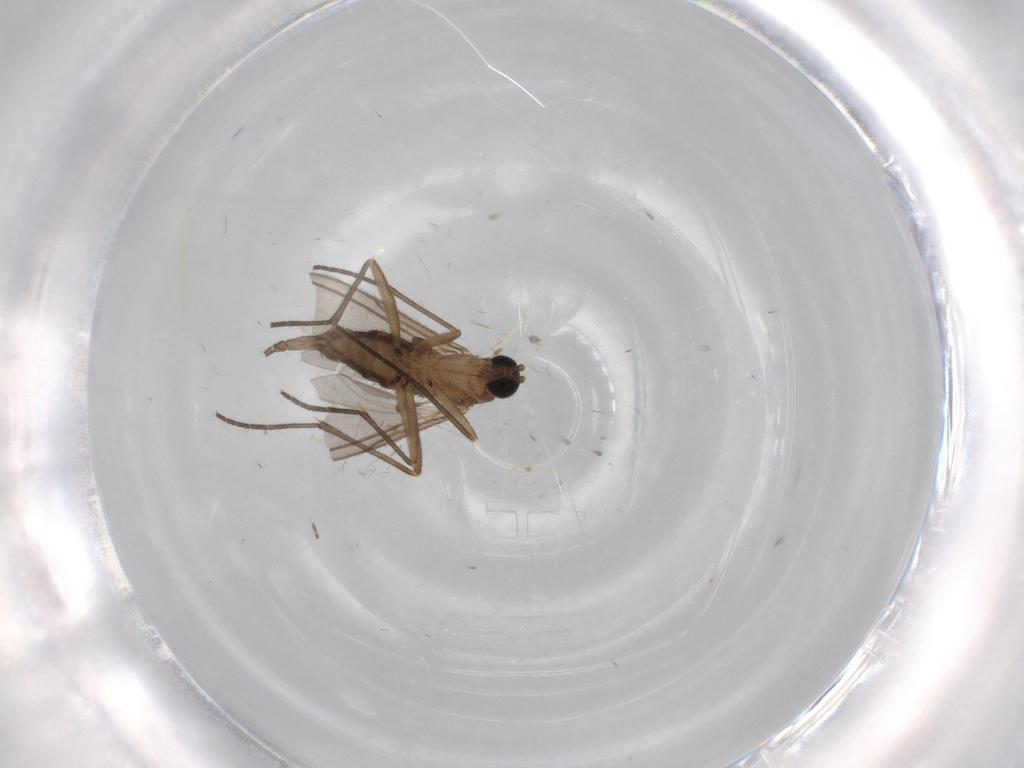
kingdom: Animalia
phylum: Arthropoda
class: Insecta
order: Diptera
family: Sciaridae
